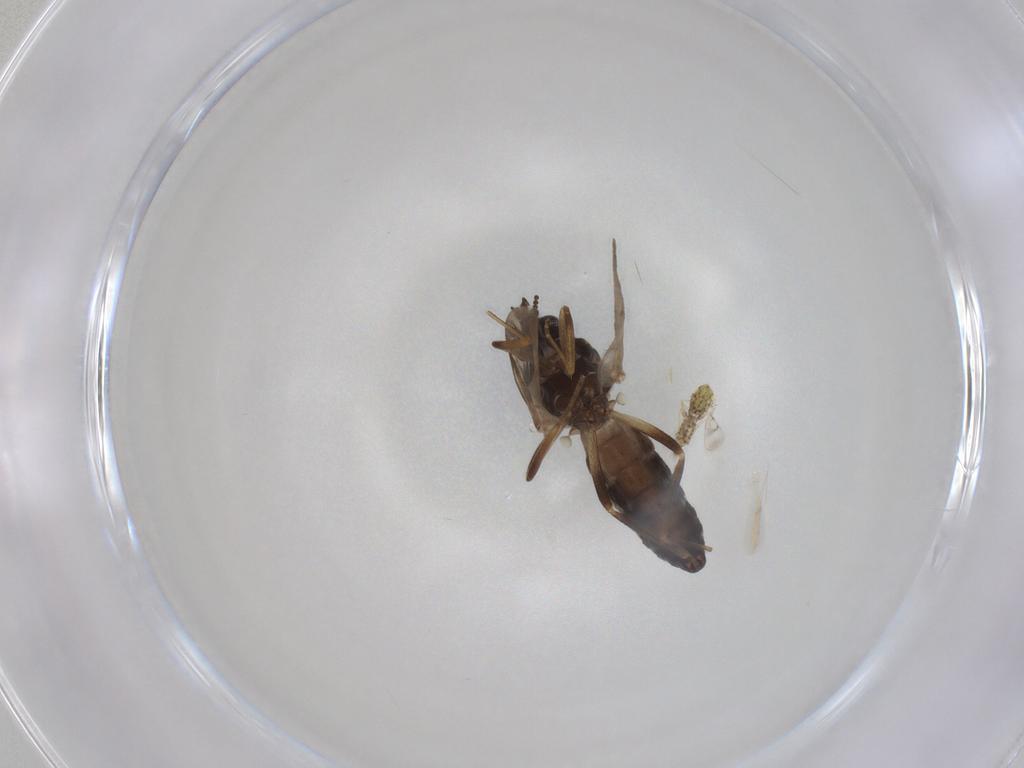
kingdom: Animalia
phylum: Arthropoda
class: Insecta
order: Diptera
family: Ceratopogonidae
